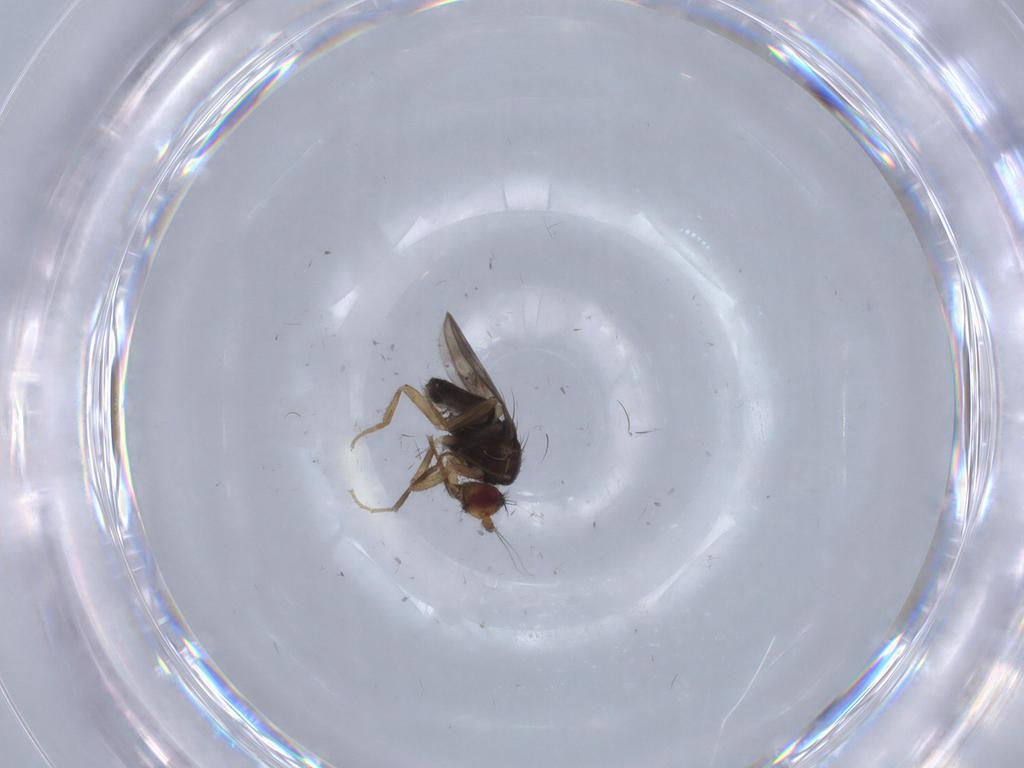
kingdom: Animalia
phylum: Arthropoda
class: Insecta
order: Diptera
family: Sphaeroceridae
